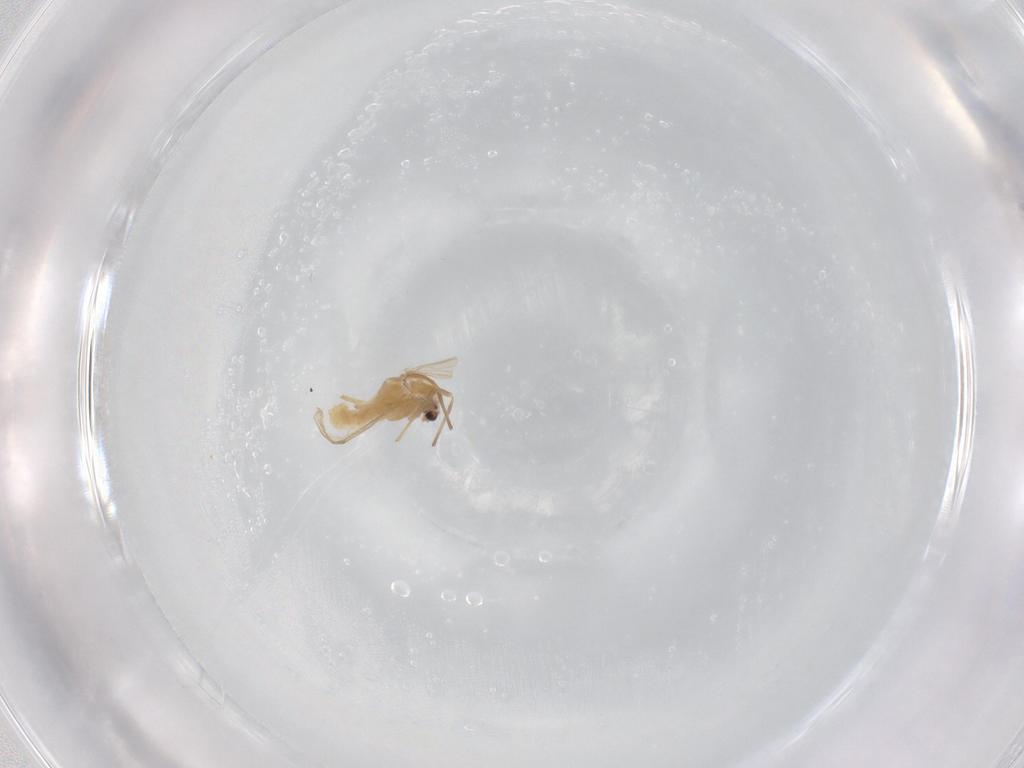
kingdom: Animalia
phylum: Arthropoda
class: Insecta
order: Diptera
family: Chironomidae
